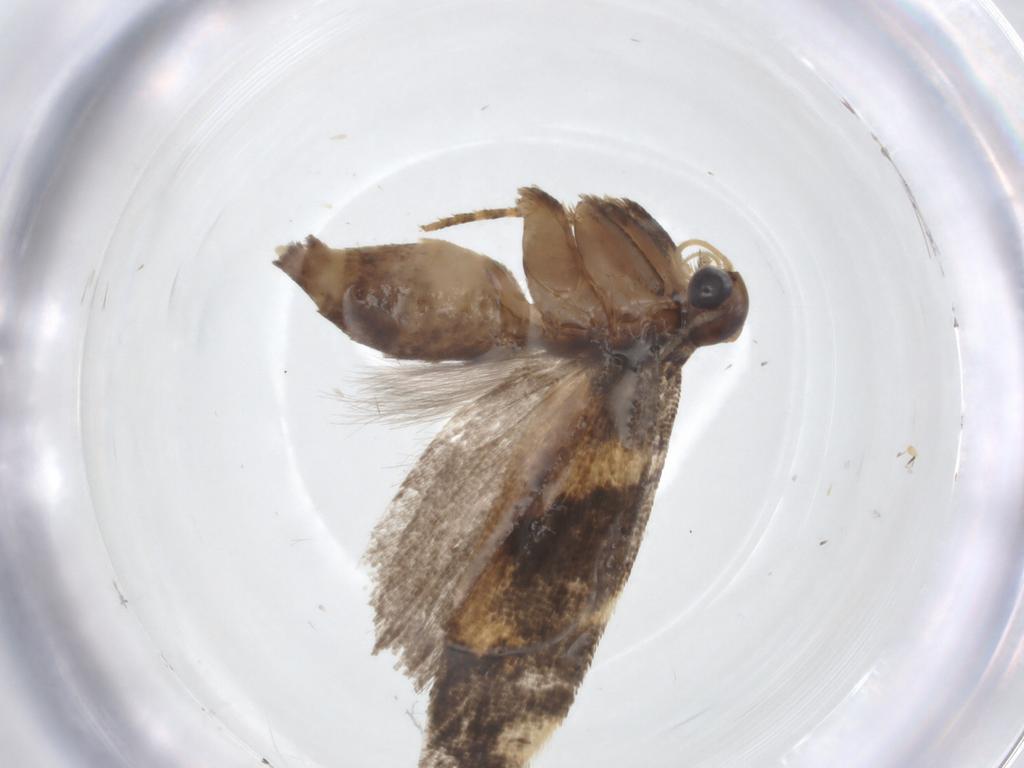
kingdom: Animalia
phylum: Arthropoda
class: Insecta
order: Lepidoptera
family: Gelechiidae
